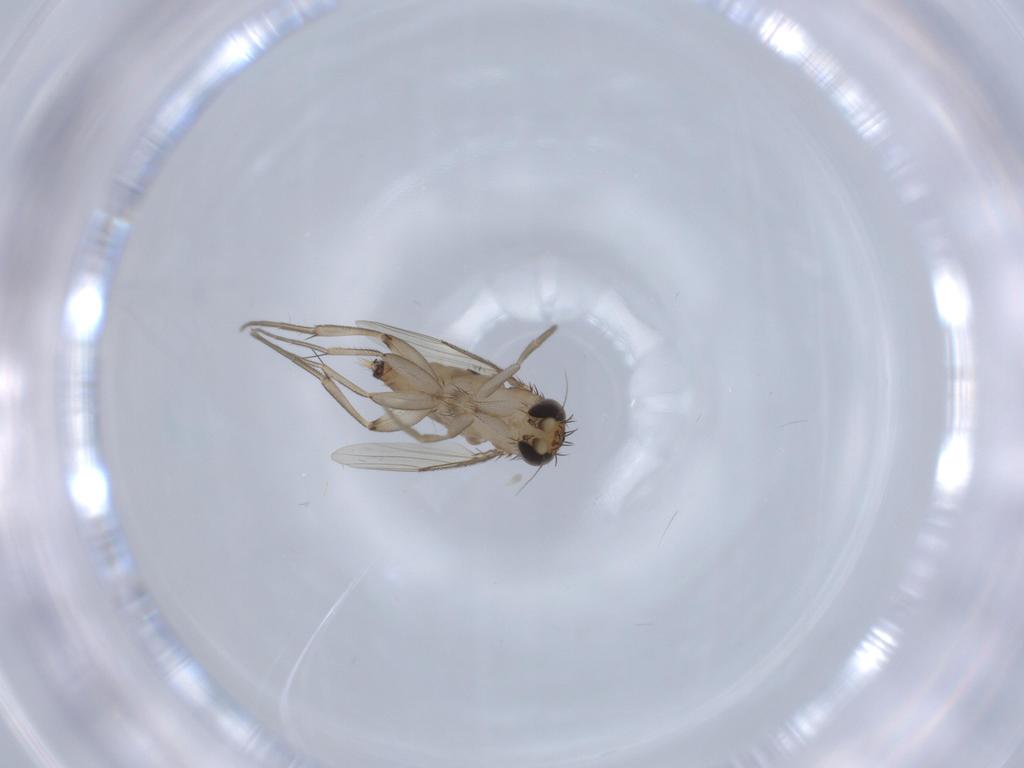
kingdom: Animalia
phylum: Arthropoda
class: Insecta
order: Diptera
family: Phoridae
